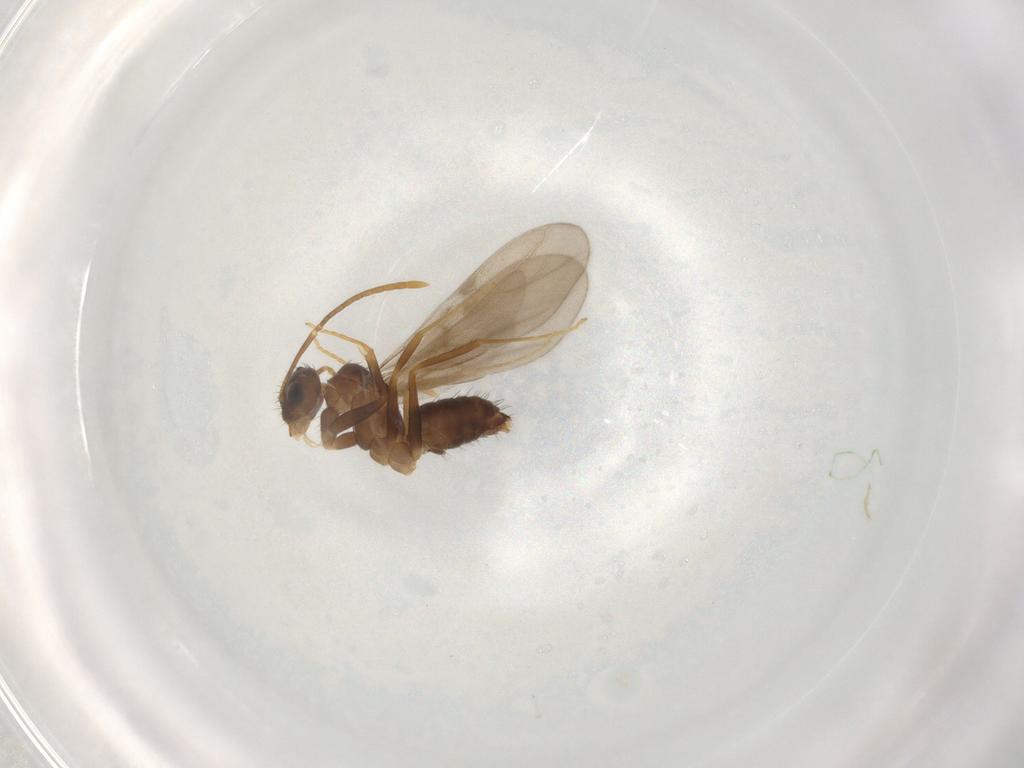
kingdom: Animalia
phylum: Arthropoda
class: Insecta
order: Hymenoptera
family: Formicidae
